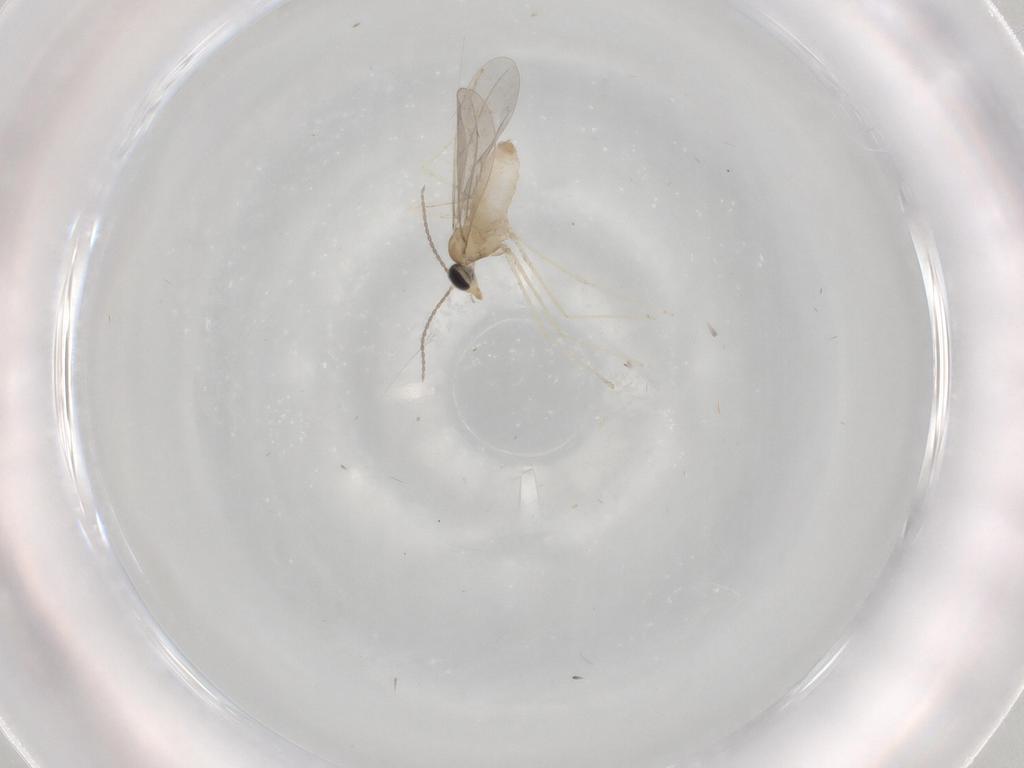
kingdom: Animalia
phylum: Arthropoda
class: Insecta
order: Diptera
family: Cecidomyiidae
